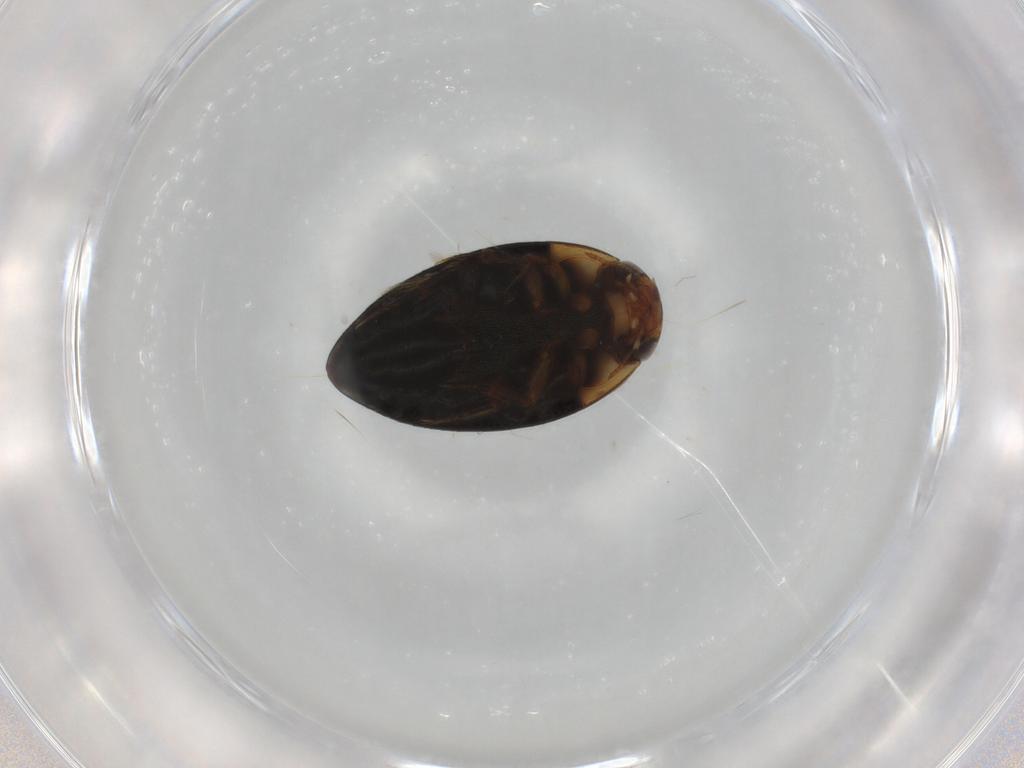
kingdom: Animalia
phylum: Arthropoda
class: Insecta
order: Coleoptera
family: Noteridae
